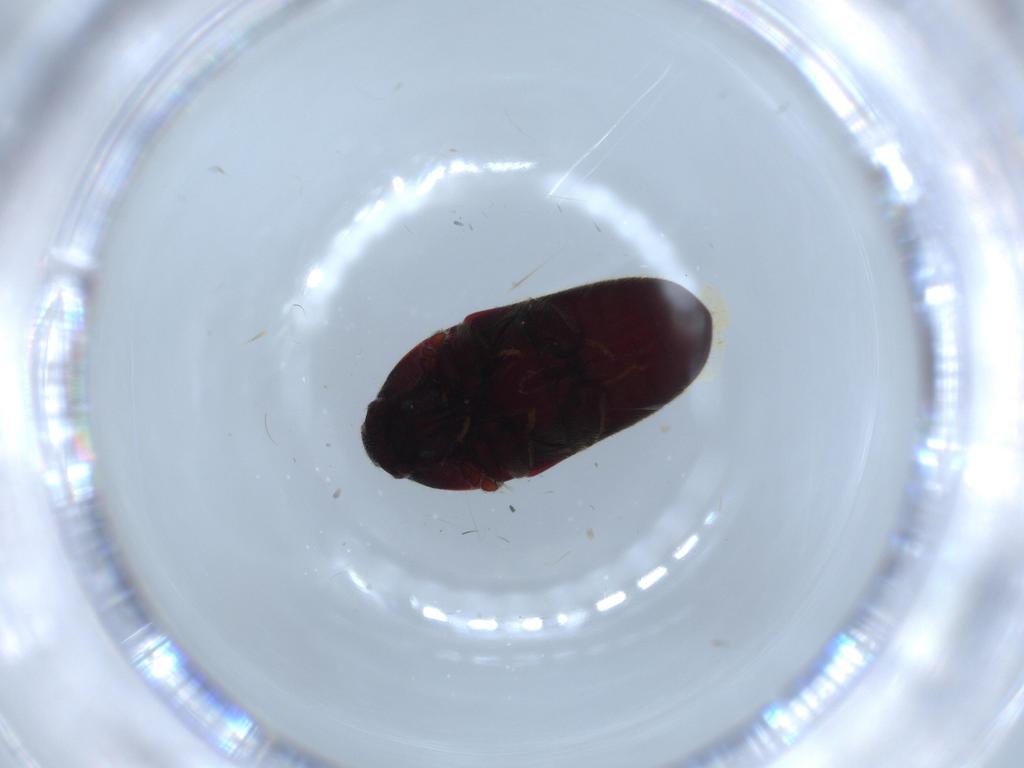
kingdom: Animalia
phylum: Arthropoda
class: Insecta
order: Coleoptera
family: Throscidae
